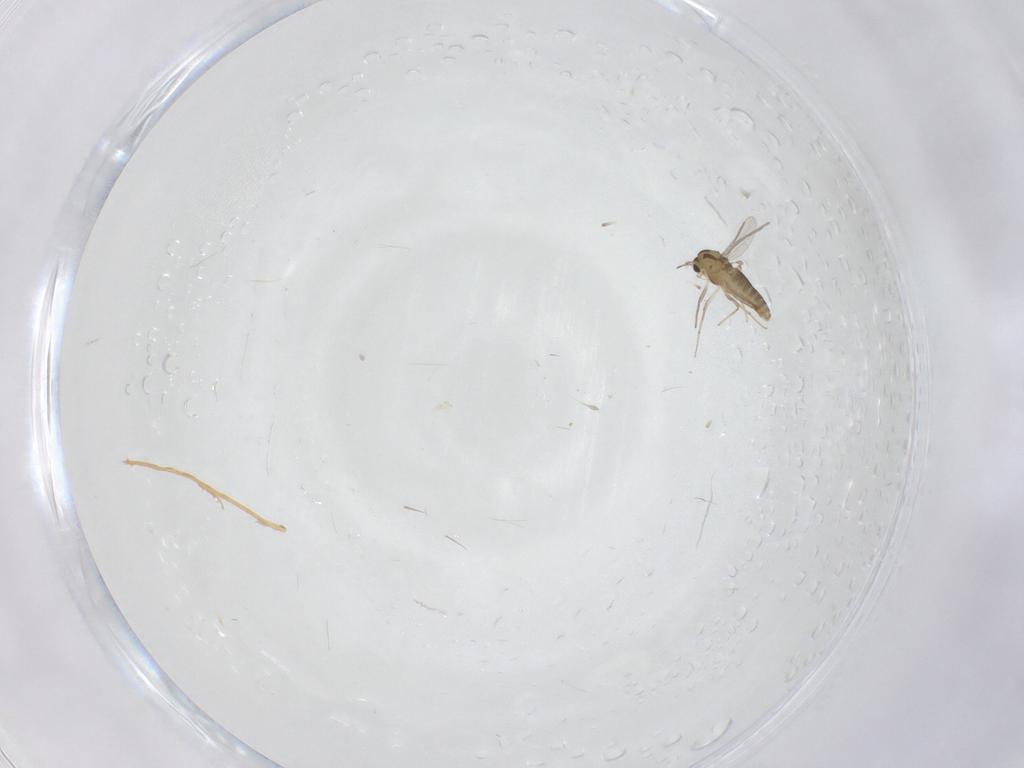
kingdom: Animalia
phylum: Arthropoda
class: Insecta
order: Diptera
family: Chironomidae
